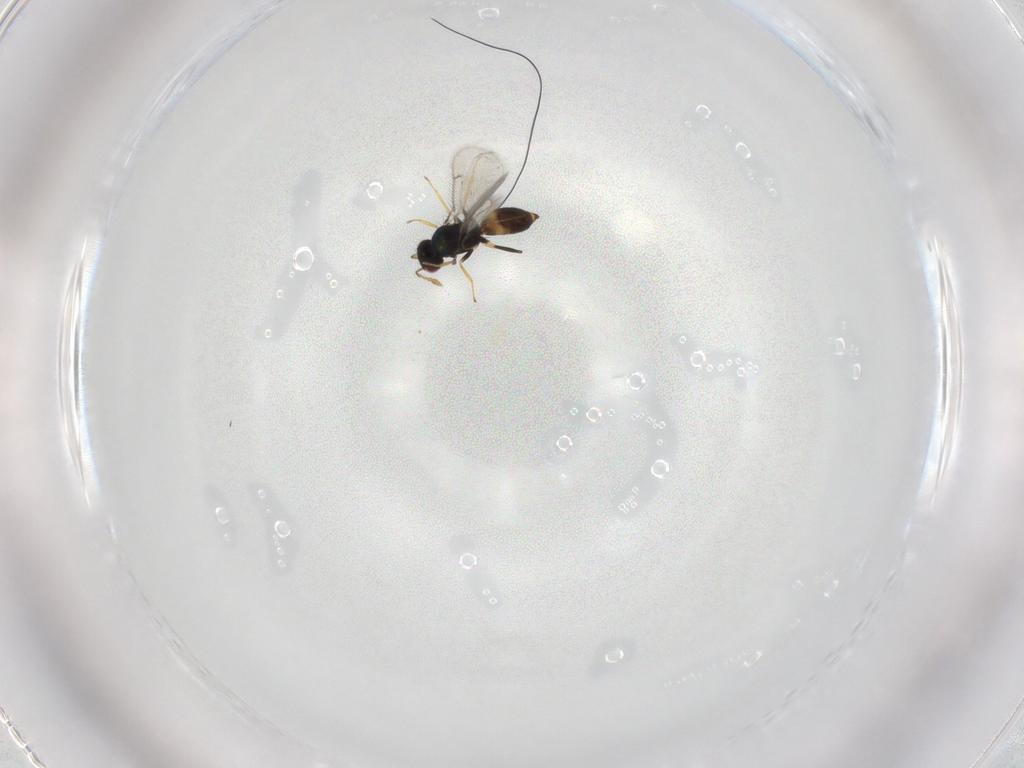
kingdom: Animalia
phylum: Arthropoda
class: Insecta
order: Hymenoptera
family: Eulophidae
